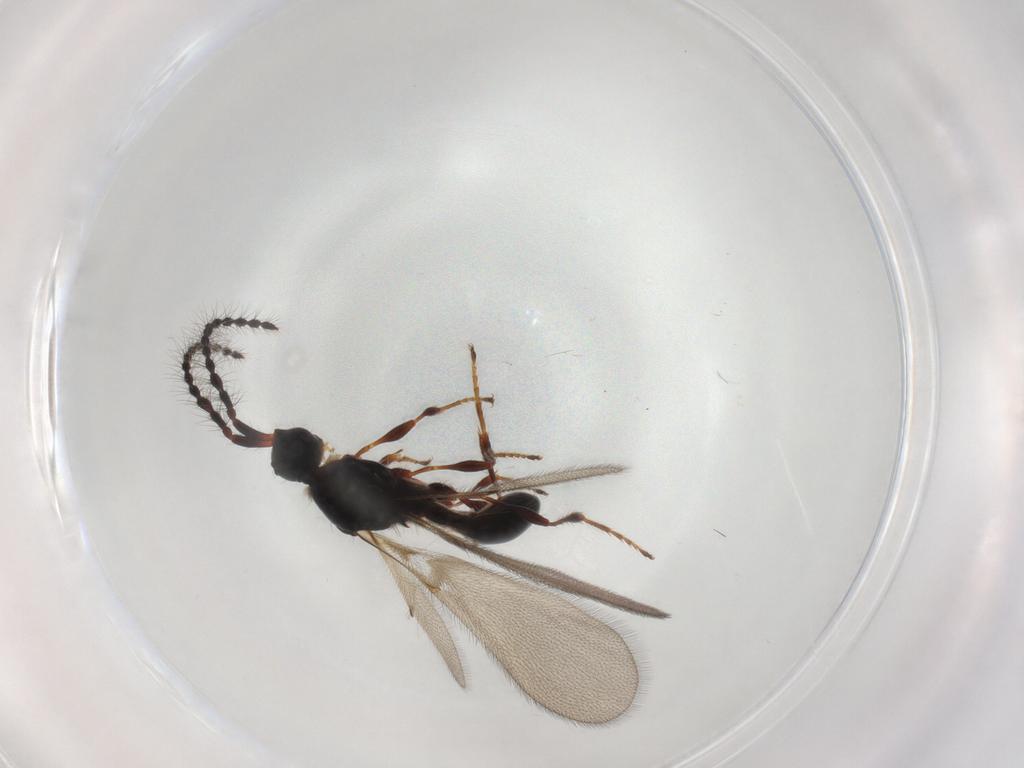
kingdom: Animalia
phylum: Arthropoda
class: Insecta
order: Hymenoptera
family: Diapriidae
